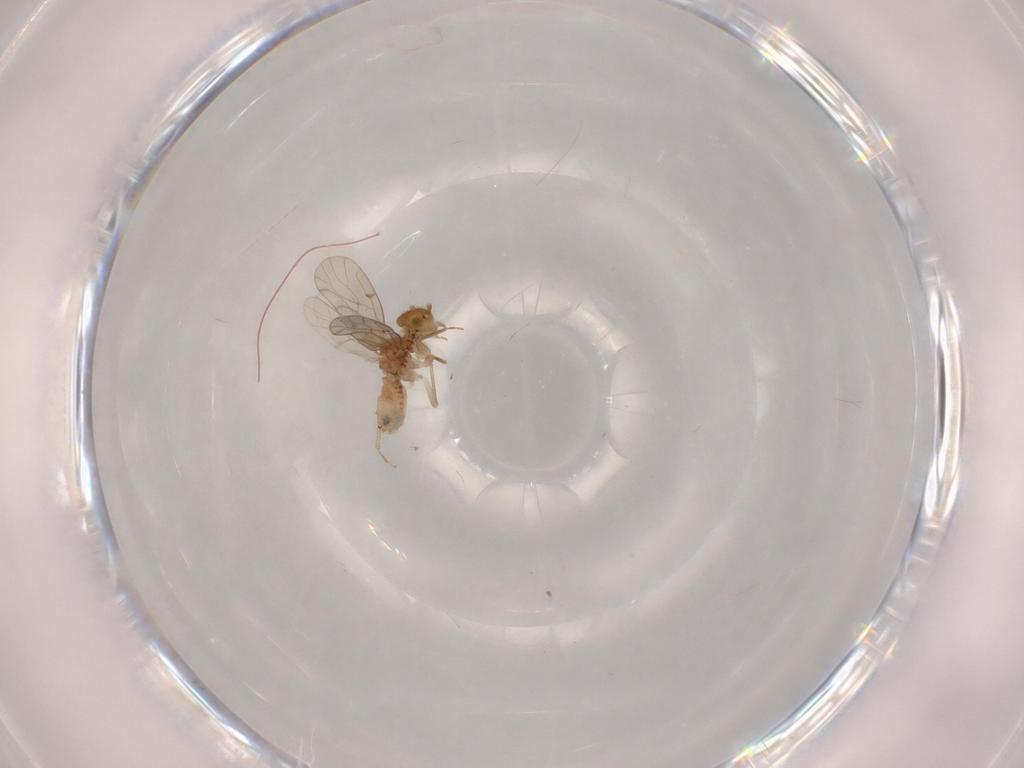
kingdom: Animalia
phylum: Arthropoda
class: Insecta
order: Psocodea
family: Ectopsocidae
